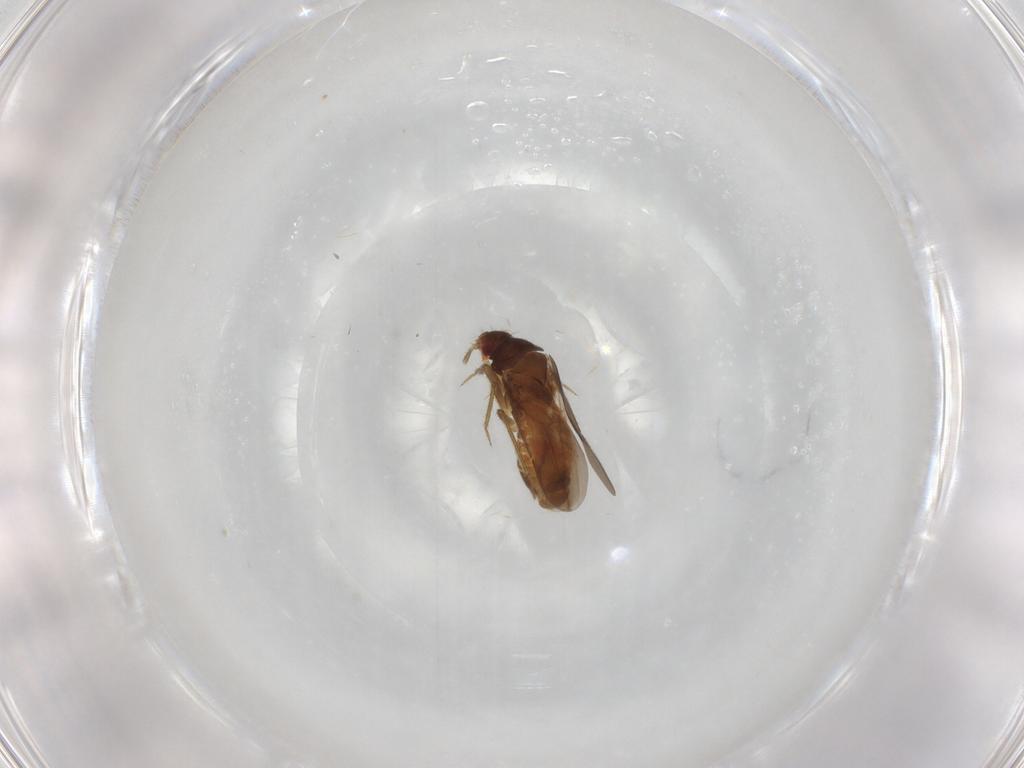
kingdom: Animalia
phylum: Arthropoda
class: Insecta
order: Hemiptera
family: Ceratocombidae
